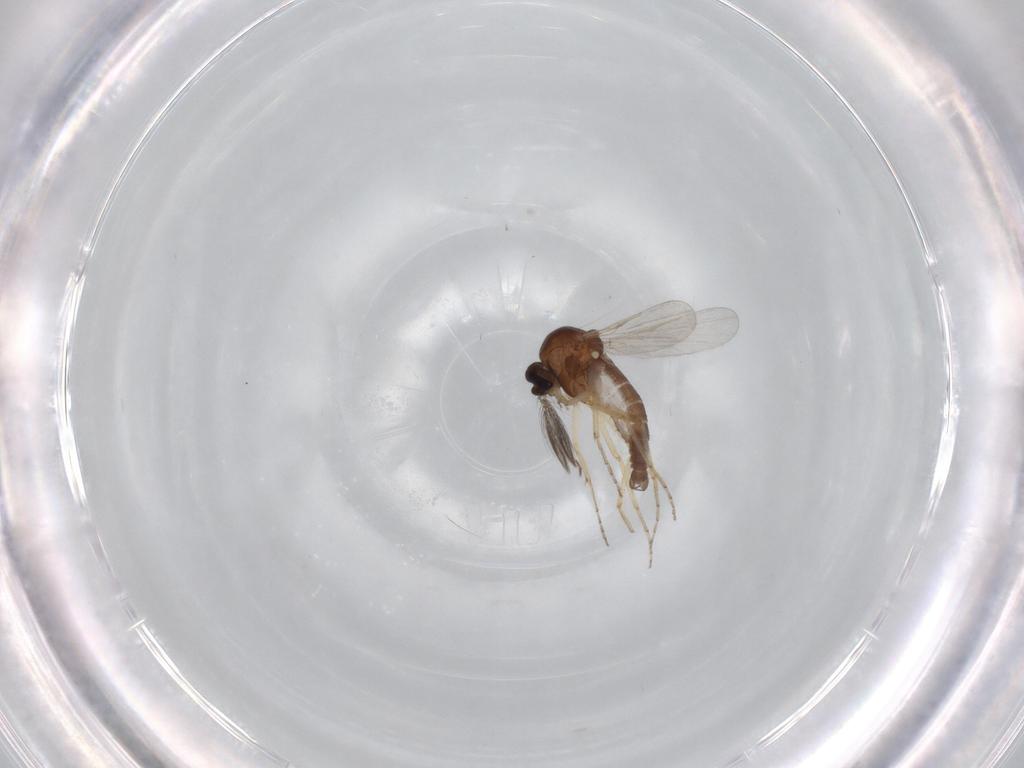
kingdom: Animalia
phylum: Arthropoda
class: Insecta
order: Diptera
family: Ceratopogonidae
